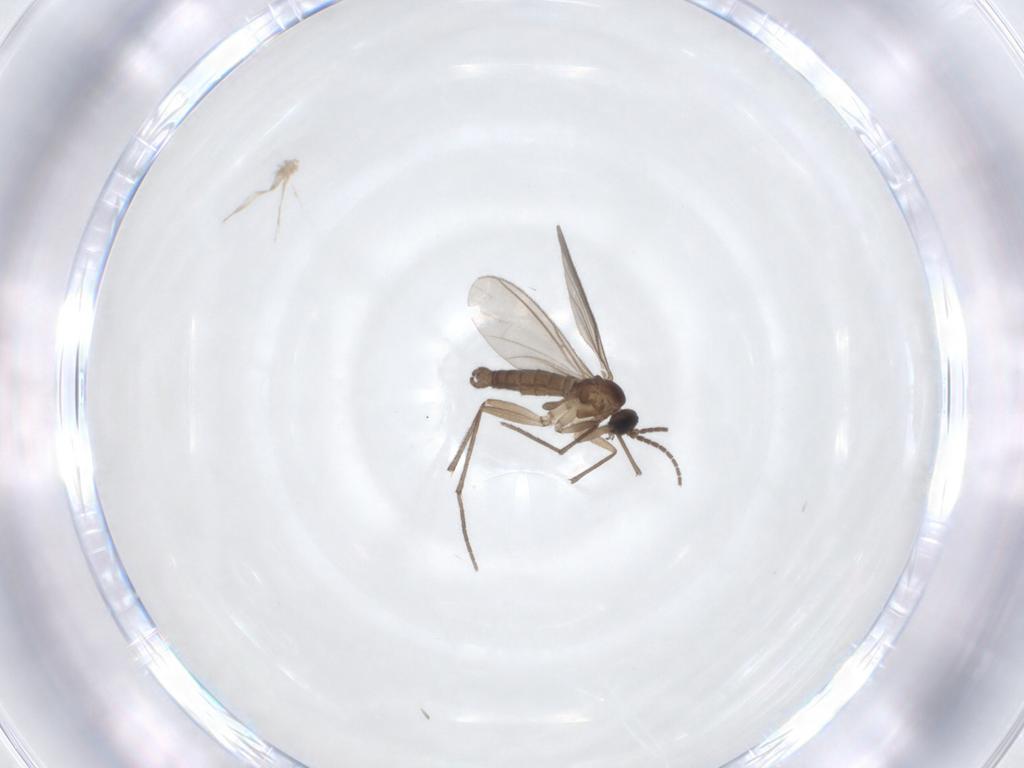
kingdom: Animalia
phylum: Arthropoda
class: Insecta
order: Diptera
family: Sciaridae
